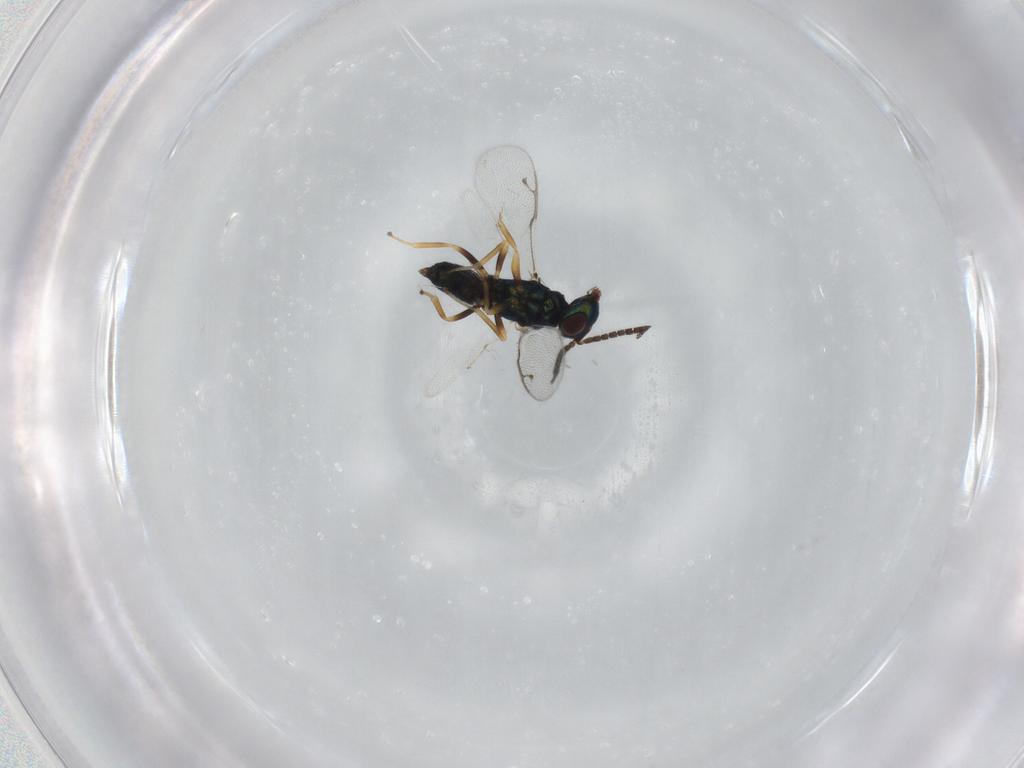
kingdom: Animalia
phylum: Arthropoda
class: Insecta
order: Hymenoptera
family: Pteromalidae
